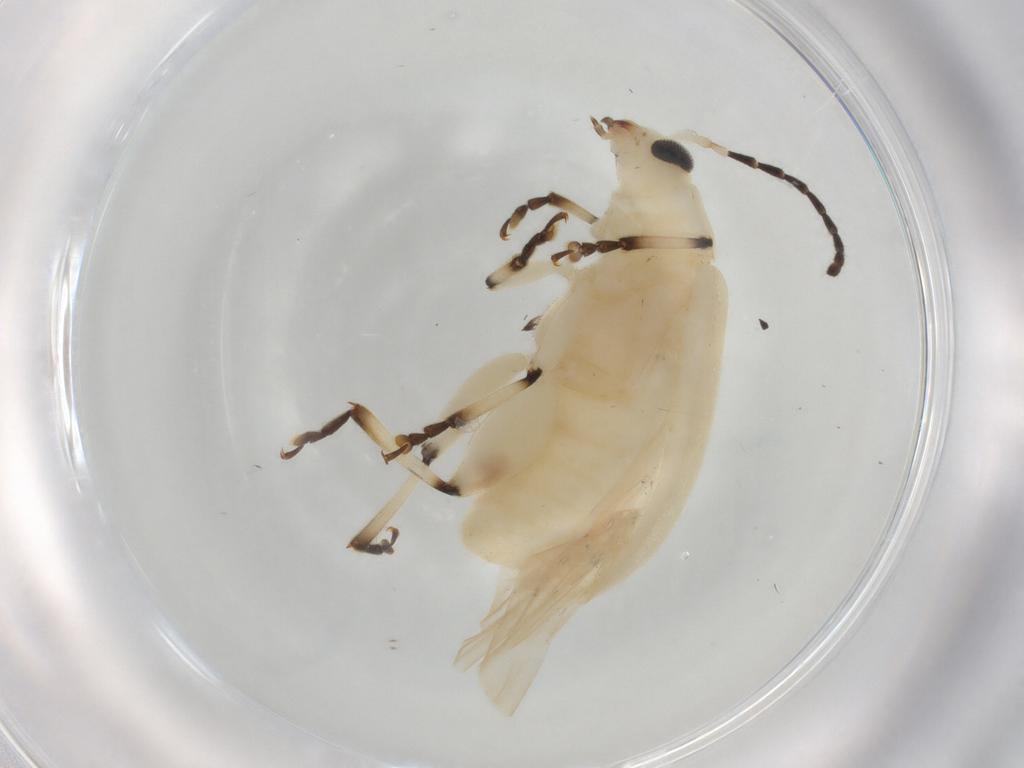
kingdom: Animalia
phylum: Arthropoda
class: Insecta
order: Coleoptera
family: Chrysomelidae
